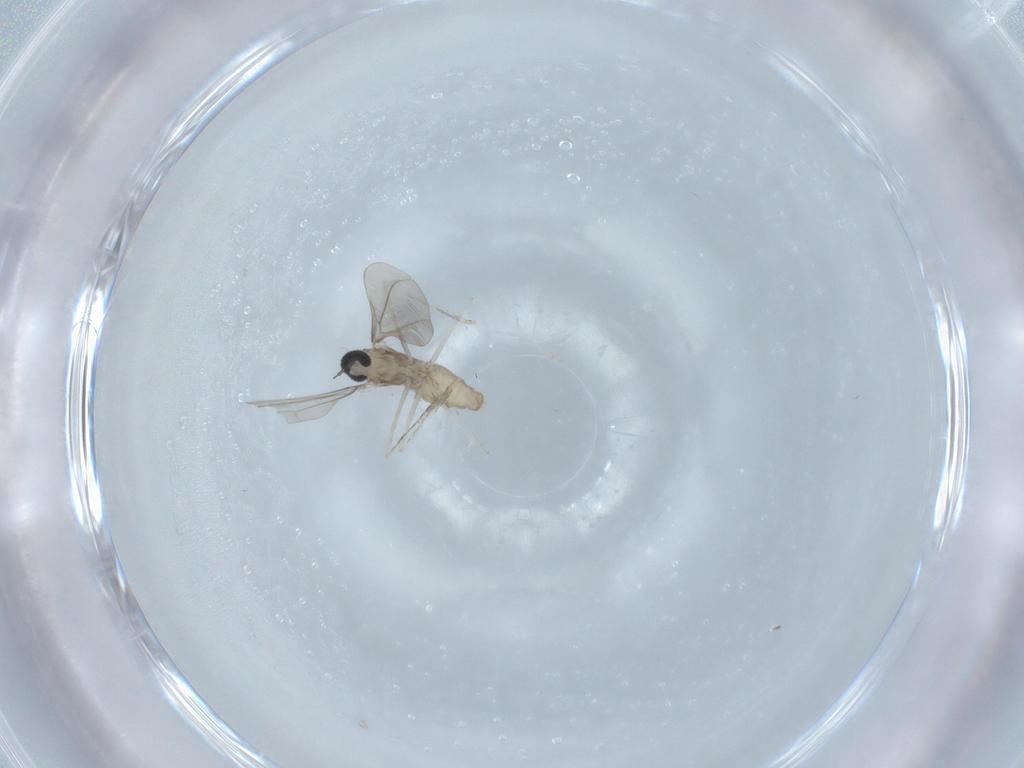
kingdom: Animalia
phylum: Arthropoda
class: Insecta
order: Diptera
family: Cecidomyiidae
